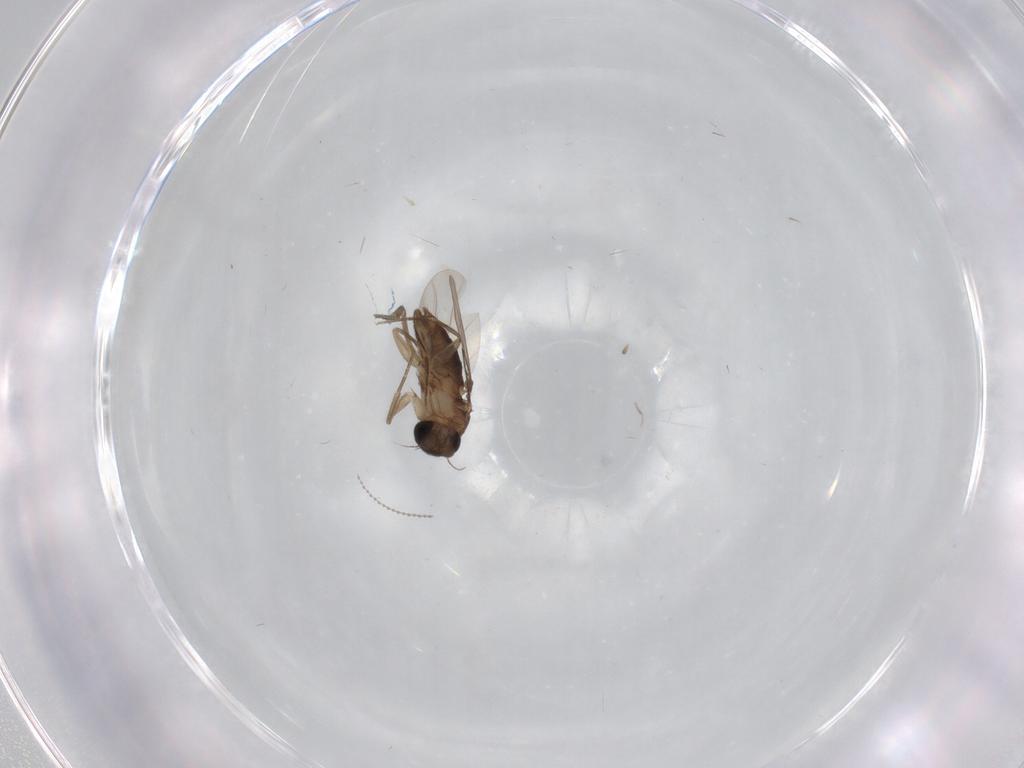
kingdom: Animalia
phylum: Arthropoda
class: Insecta
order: Diptera
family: Phoridae
